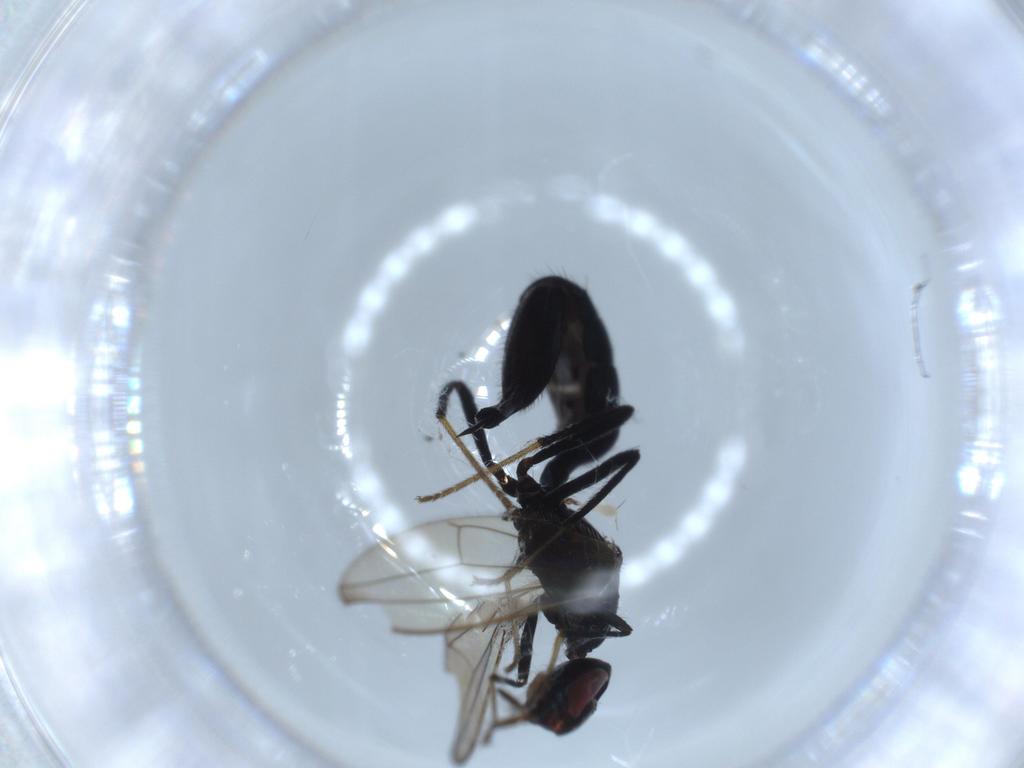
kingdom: Animalia
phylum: Arthropoda
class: Insecta
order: Diptera
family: Richardiidae
